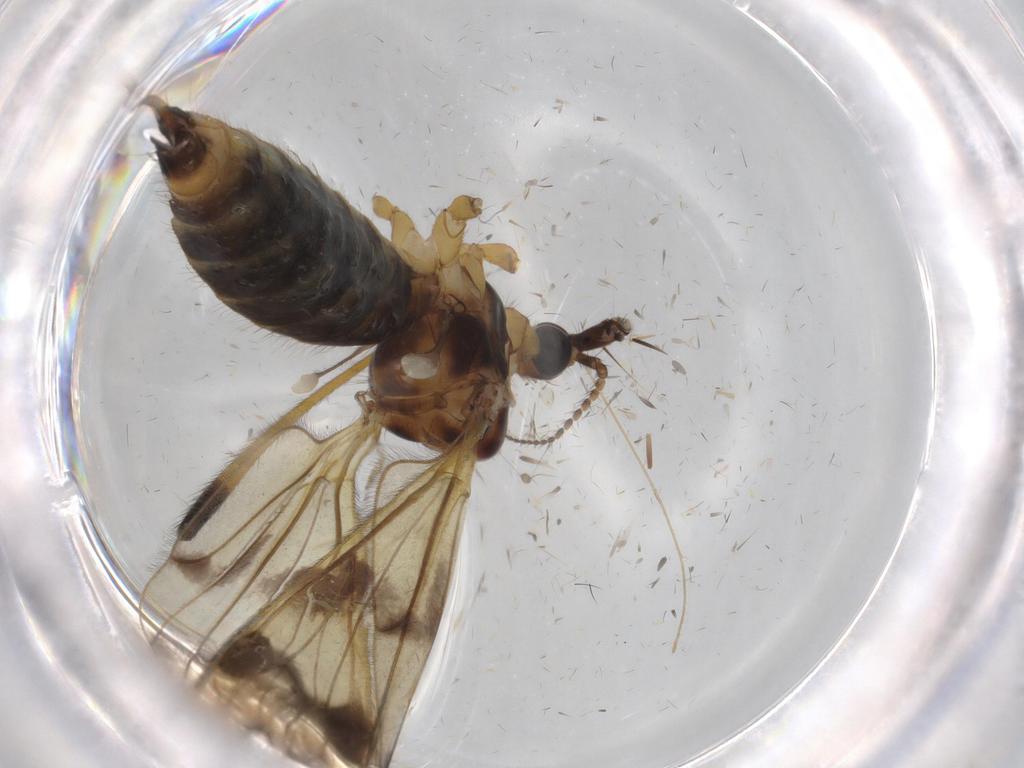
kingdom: Animalia
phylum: Arthropoda
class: Insecta
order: Diptera
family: Limoniidae
